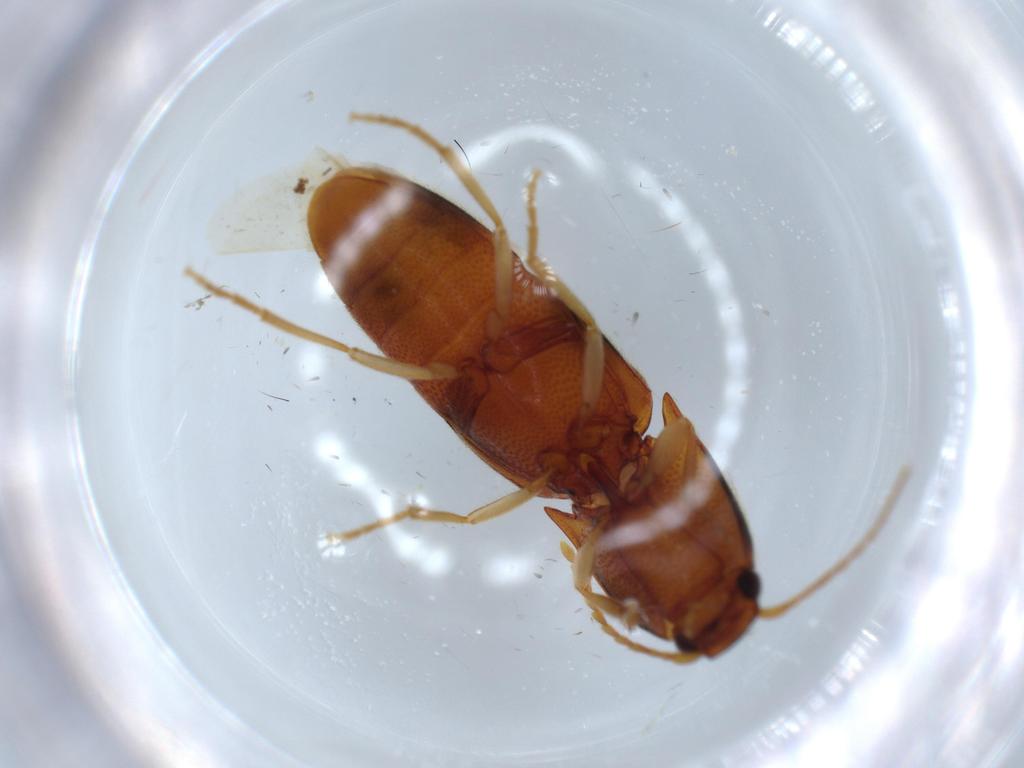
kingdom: Animalia
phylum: Arthropoda
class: Insecta
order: Coleoptera
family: Elateridae
